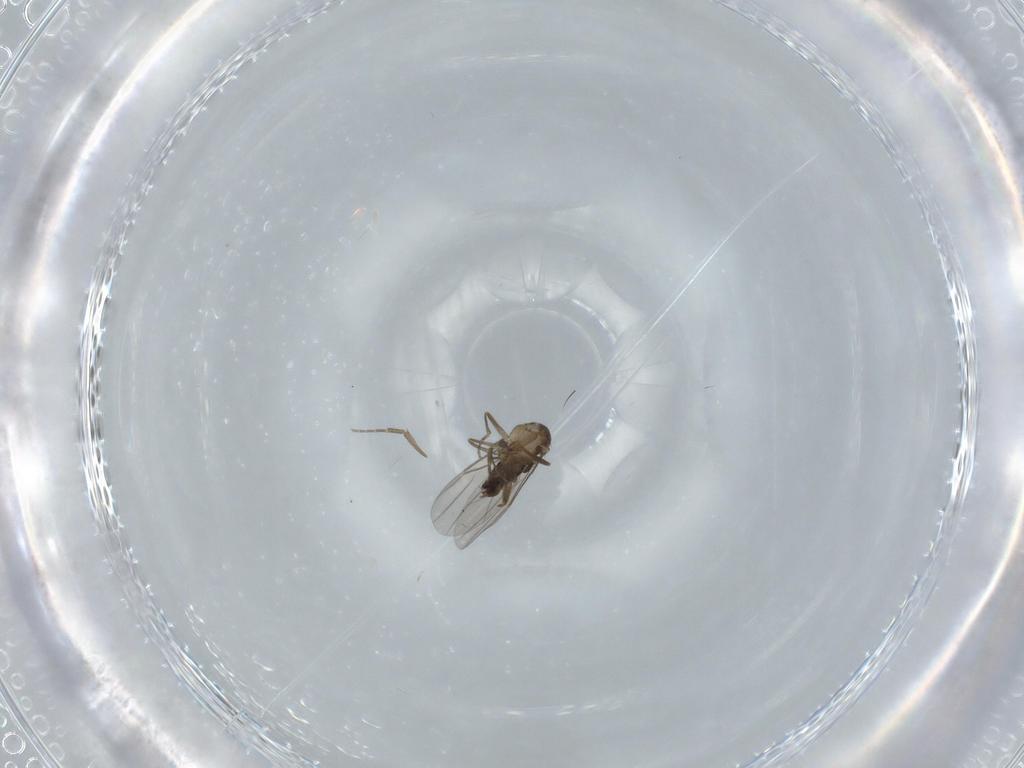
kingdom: Animalia
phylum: Arthropoda
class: Insecta
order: Diptera
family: Phoridae
